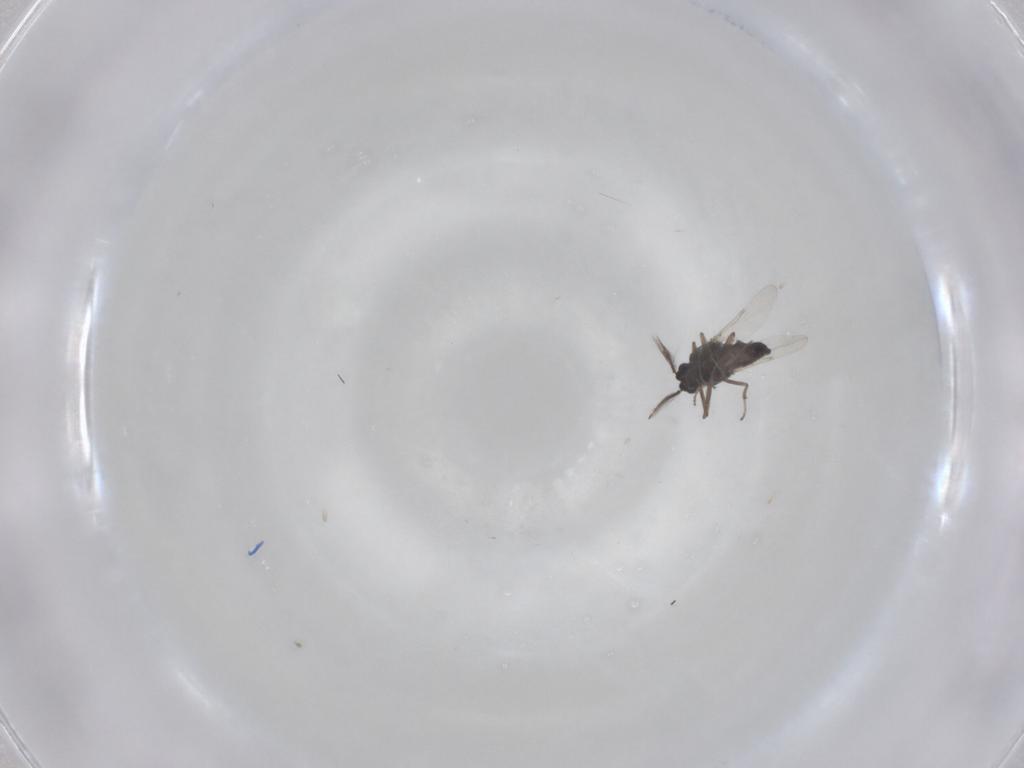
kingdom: Animalia
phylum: Arthropoda
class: Insecta
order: Diptera
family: Ceratopogonidae
